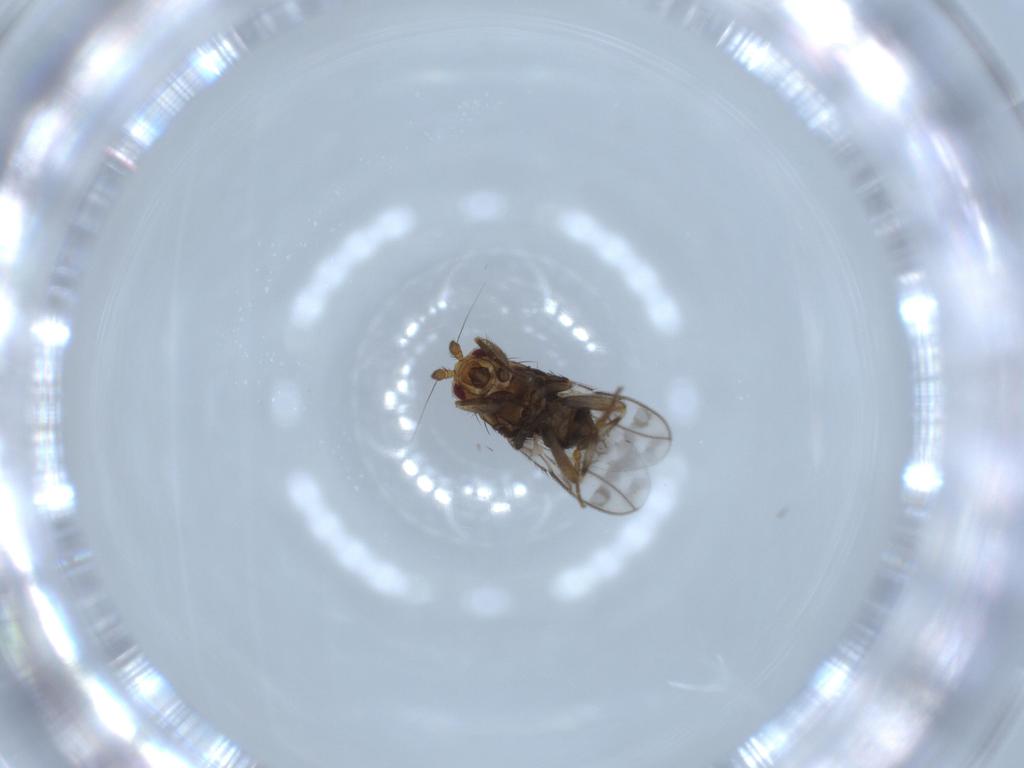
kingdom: Animalia
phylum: Arthropoda
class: Insecta
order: Diptera
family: Sphaeroceridae
